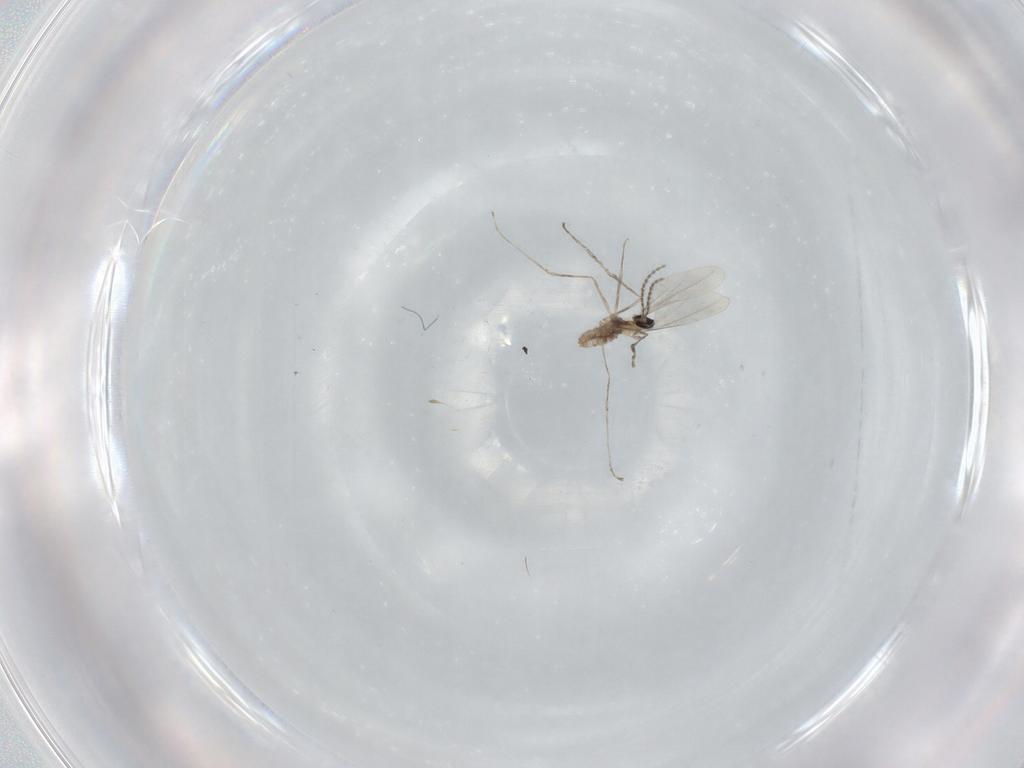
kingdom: Animalia
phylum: Arthropoda
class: Insecta
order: Diptera
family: Cecidomyiidae
